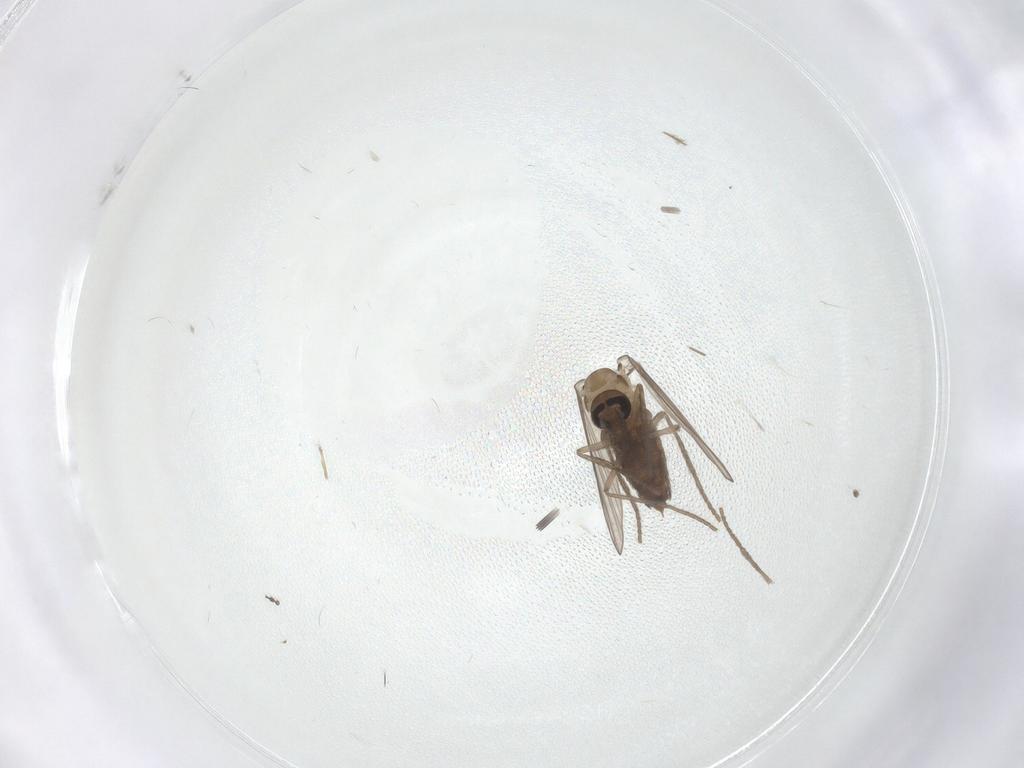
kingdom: Animalia
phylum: Arthropoda
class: Insecta
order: Diptera
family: Psychodidae
